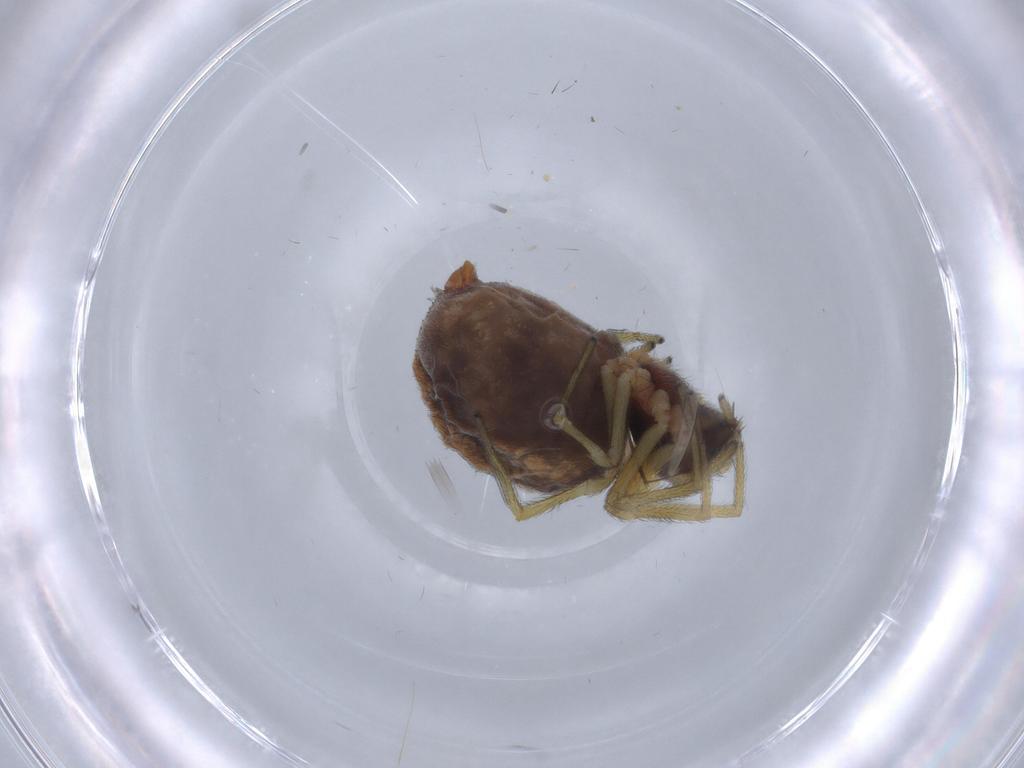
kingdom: Animalia
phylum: Arthropoda
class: Arachnida
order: Araneae
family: Dictynidae
